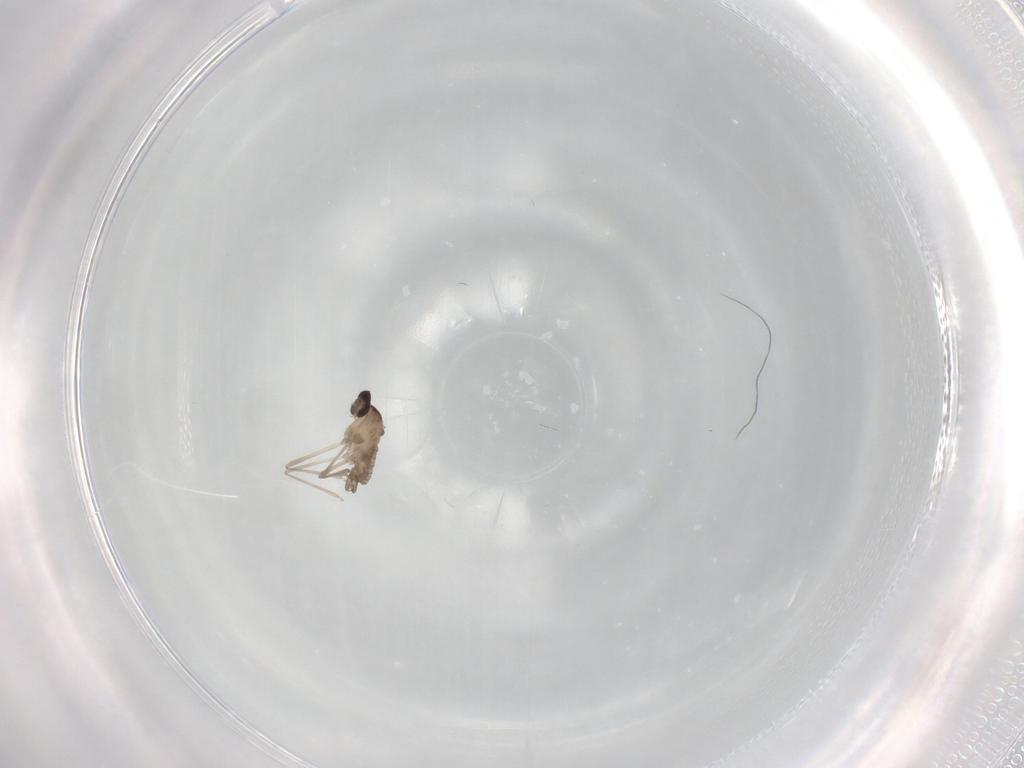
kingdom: Animalia
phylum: Arthropoda
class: Insecta
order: Diptera
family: Cecidomyiidae
